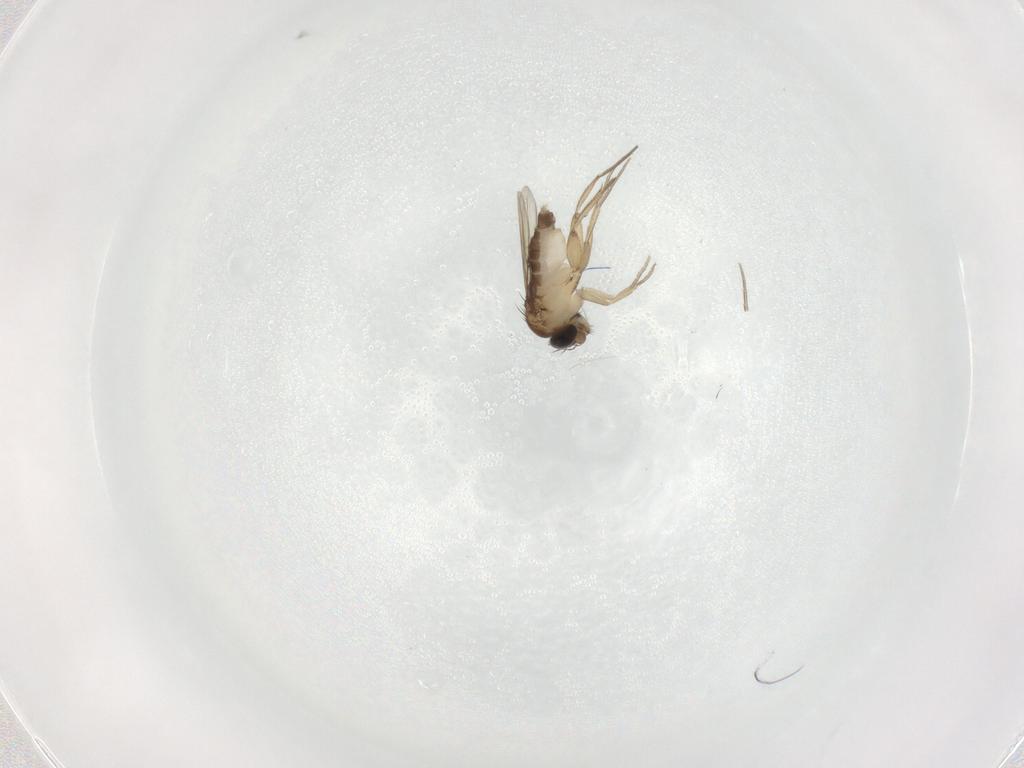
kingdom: Animalia
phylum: Arthropoda
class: Insecta
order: Diptera
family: Phoridae
